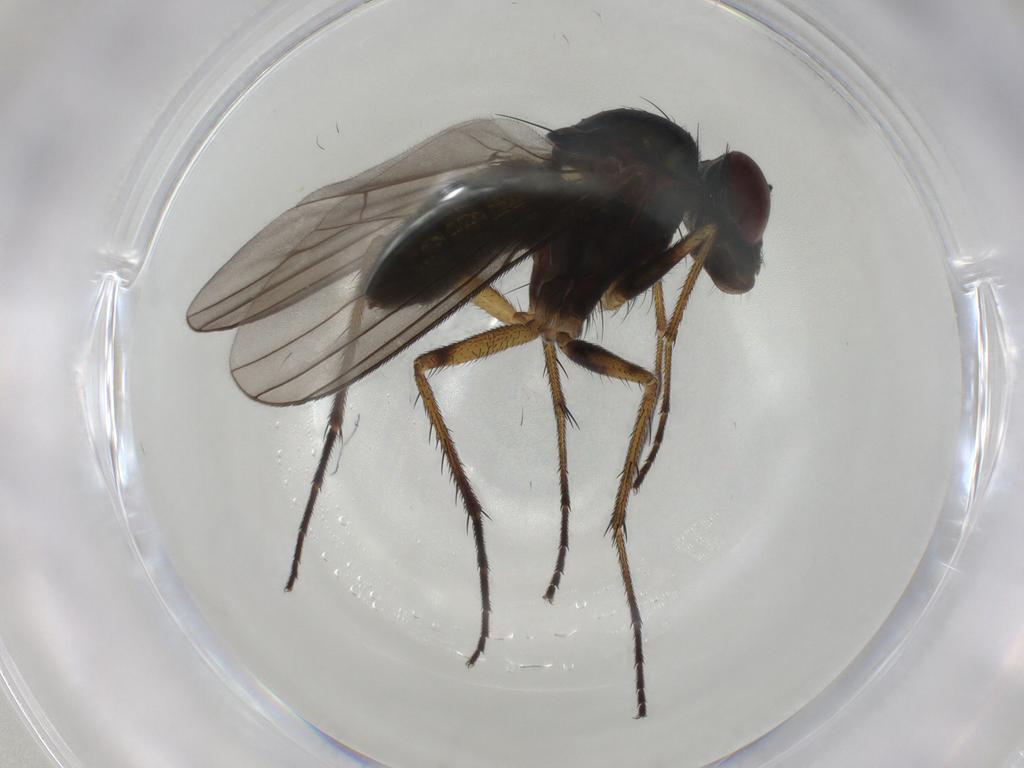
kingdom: Animalia
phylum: Arthropoda
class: Insecta
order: Diptera
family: Dolichopodidae
